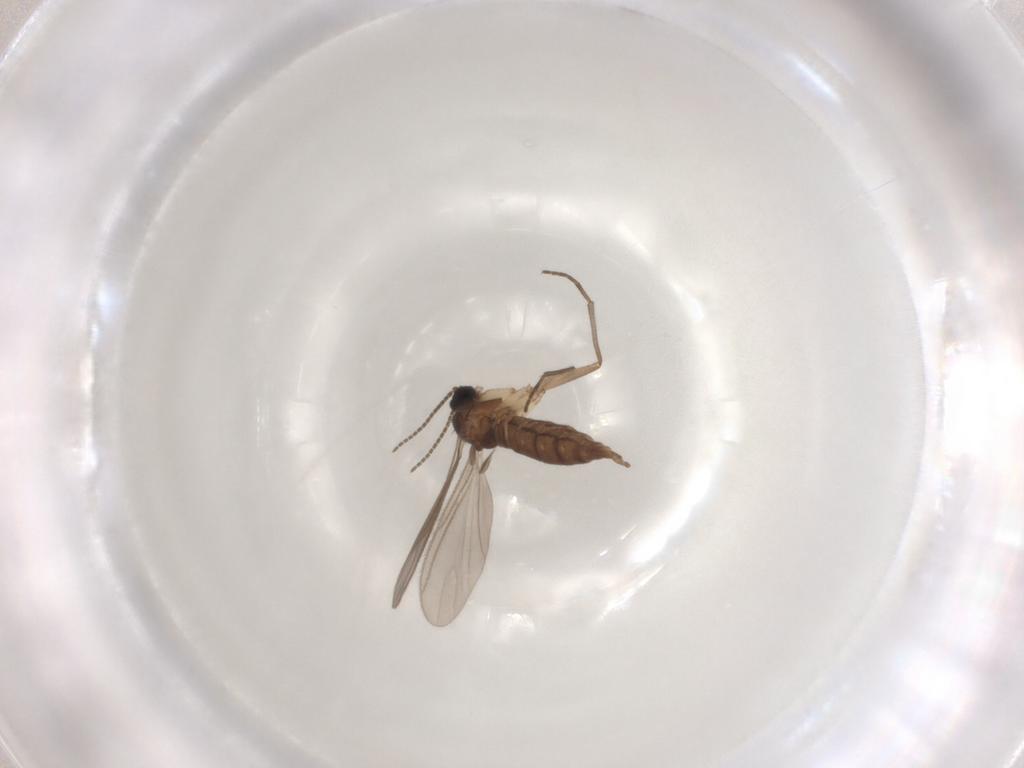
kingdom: Animalia
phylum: Arthropoda
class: Insecta
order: Diptera
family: Sciaridae
